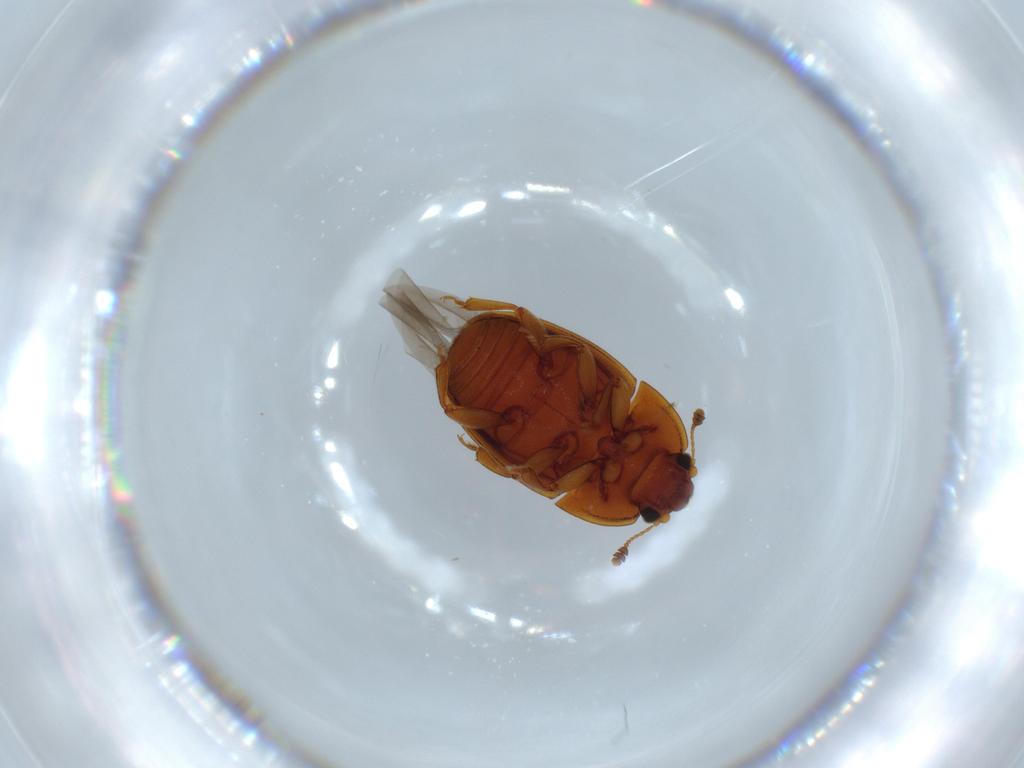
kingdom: Animalia
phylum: Arthropoda
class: Insecta
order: Coleoptera
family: Nitidulidae
